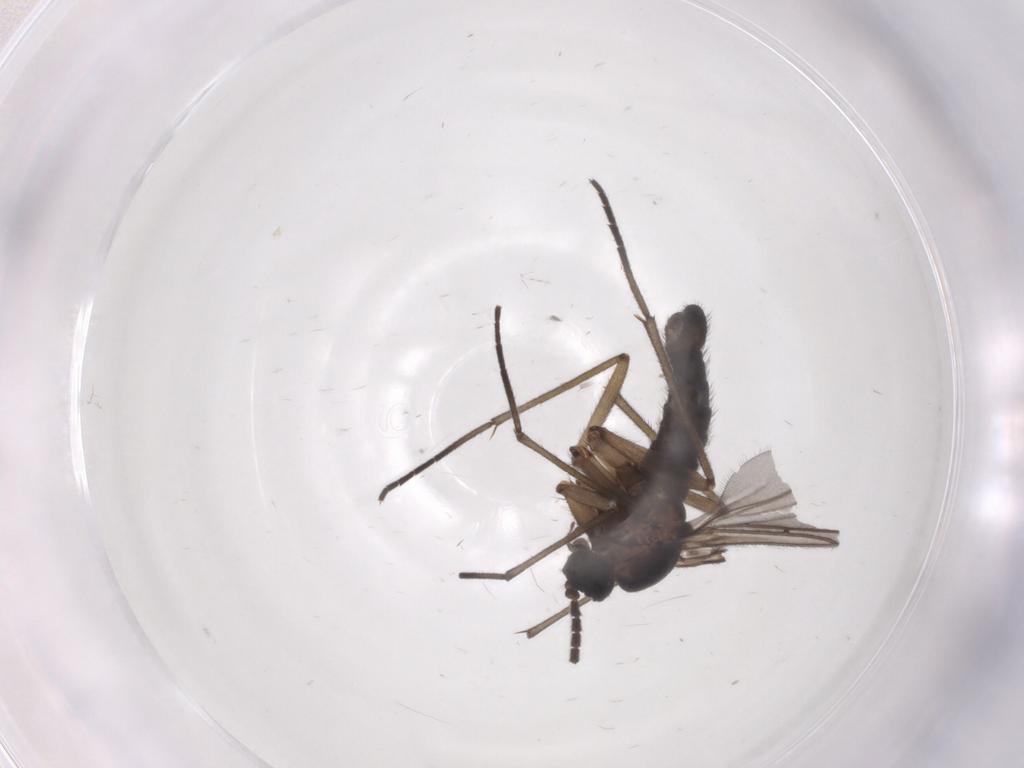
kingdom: Animalia
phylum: Arthropoda
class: Insecta
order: Diptera
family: Sciaridae
